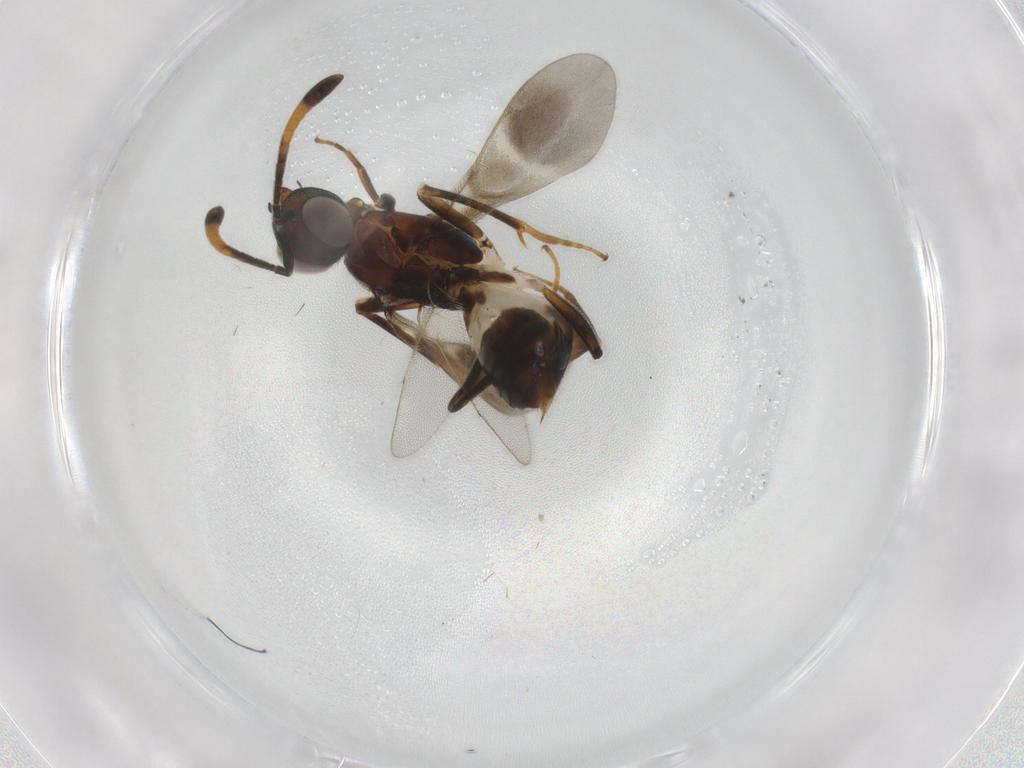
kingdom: Animalia
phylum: Arthropoda
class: Insecta
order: Hymenoptera
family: Eupelmidae
